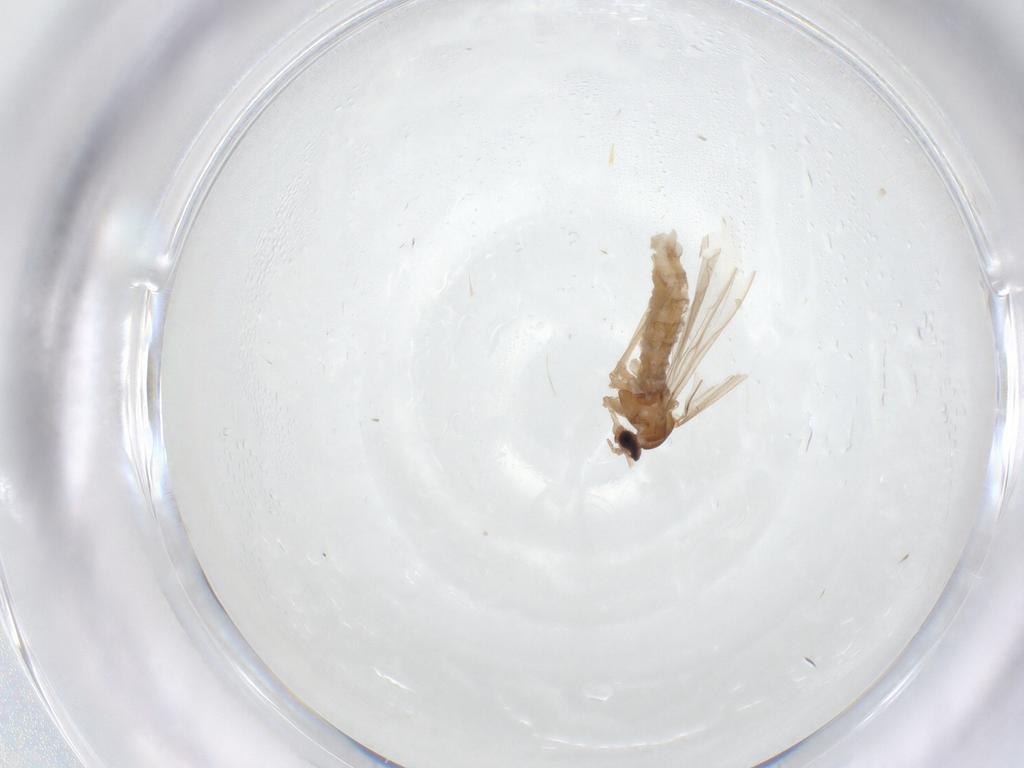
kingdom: Animalia
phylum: Arthropoda
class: Insecta
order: Diptera
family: Cecidomyiidae
